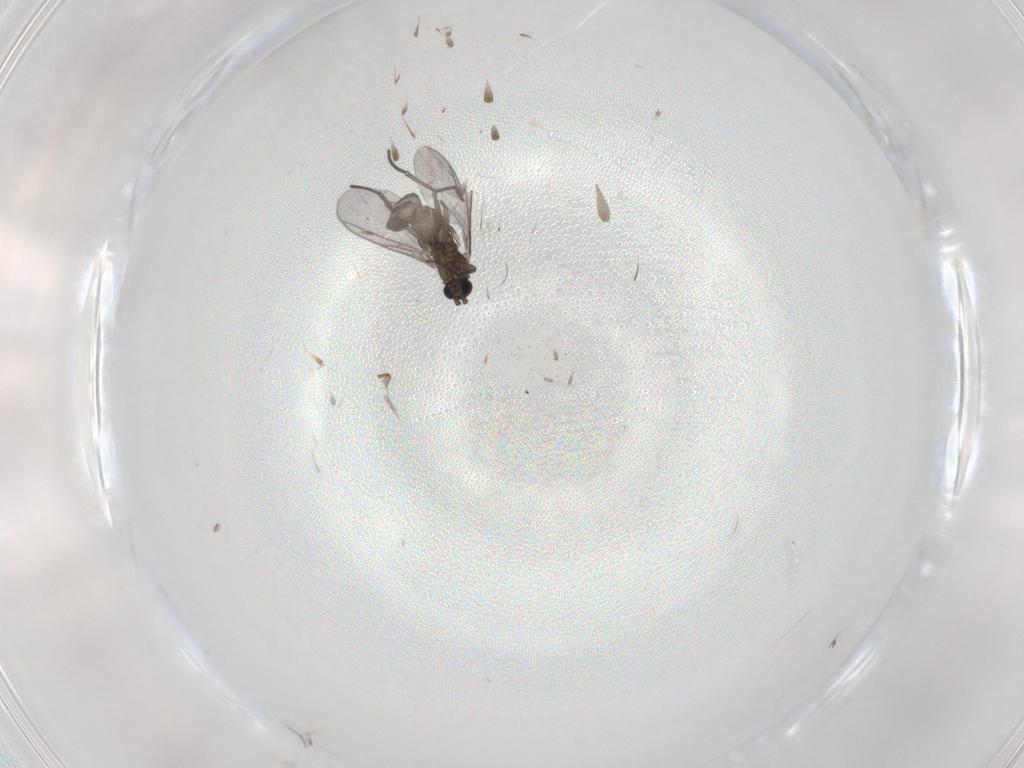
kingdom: Animalia
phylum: Arthropoda
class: Insecta
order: Diptera
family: Sciaridae
